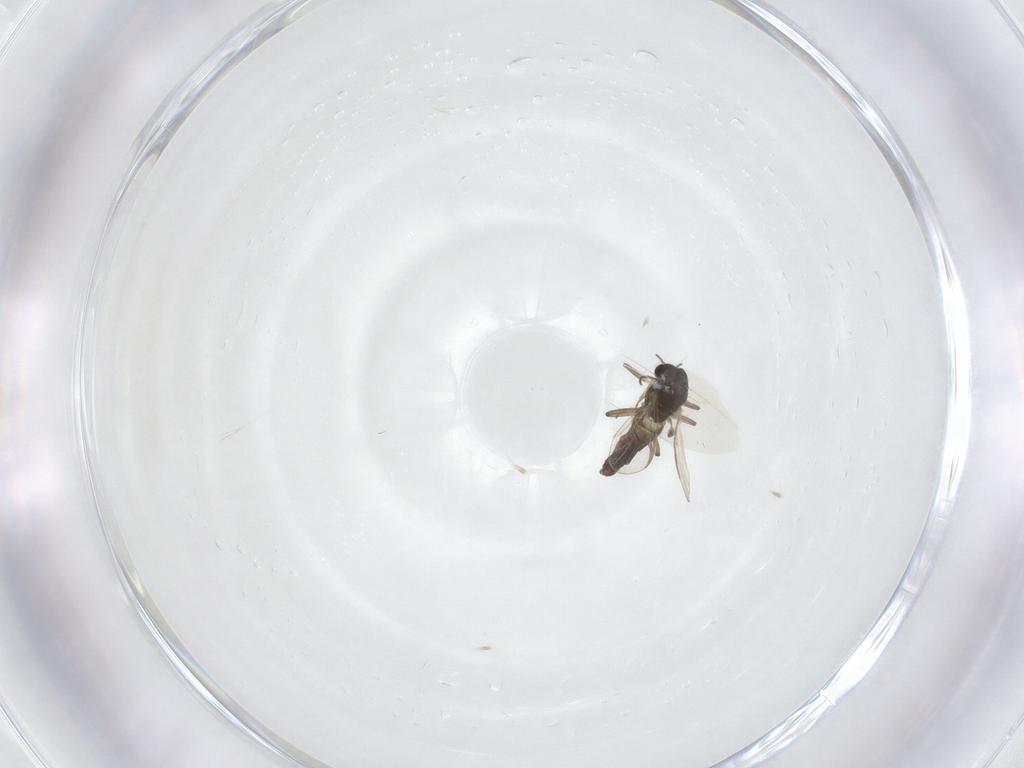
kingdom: Animalia
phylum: Arthropoda
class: Insecta
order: Diptera
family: Chironomidae
